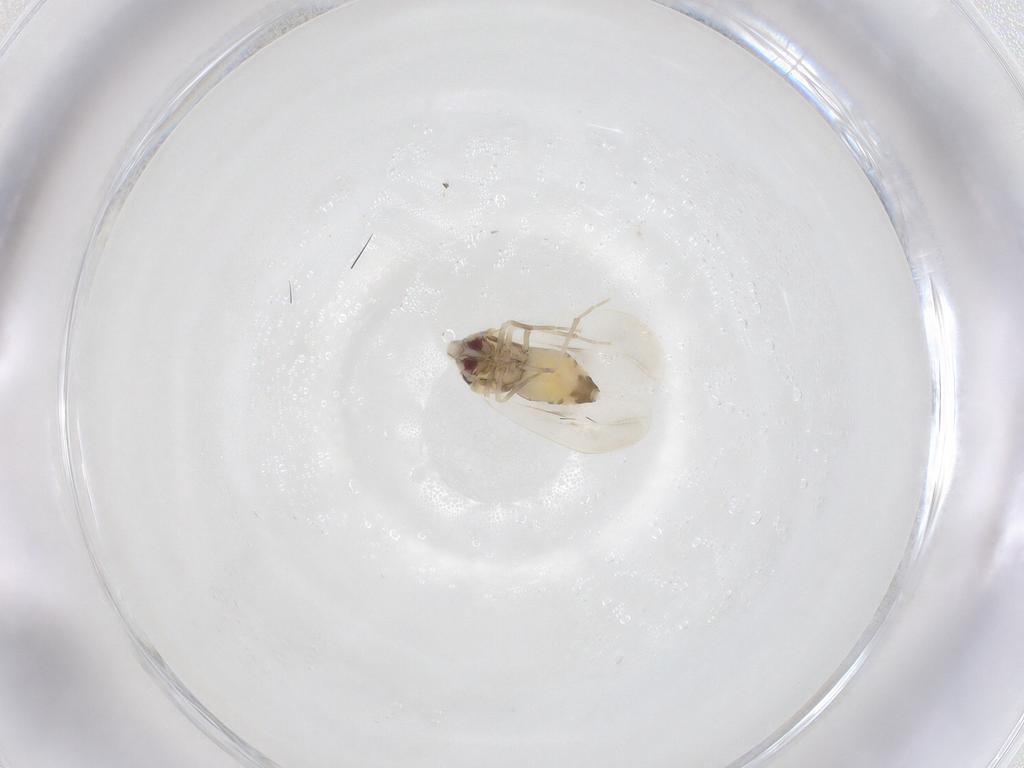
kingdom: Animalia
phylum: Arthropoda
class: Insecta
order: Hemiptera
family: Aleyrodidae
